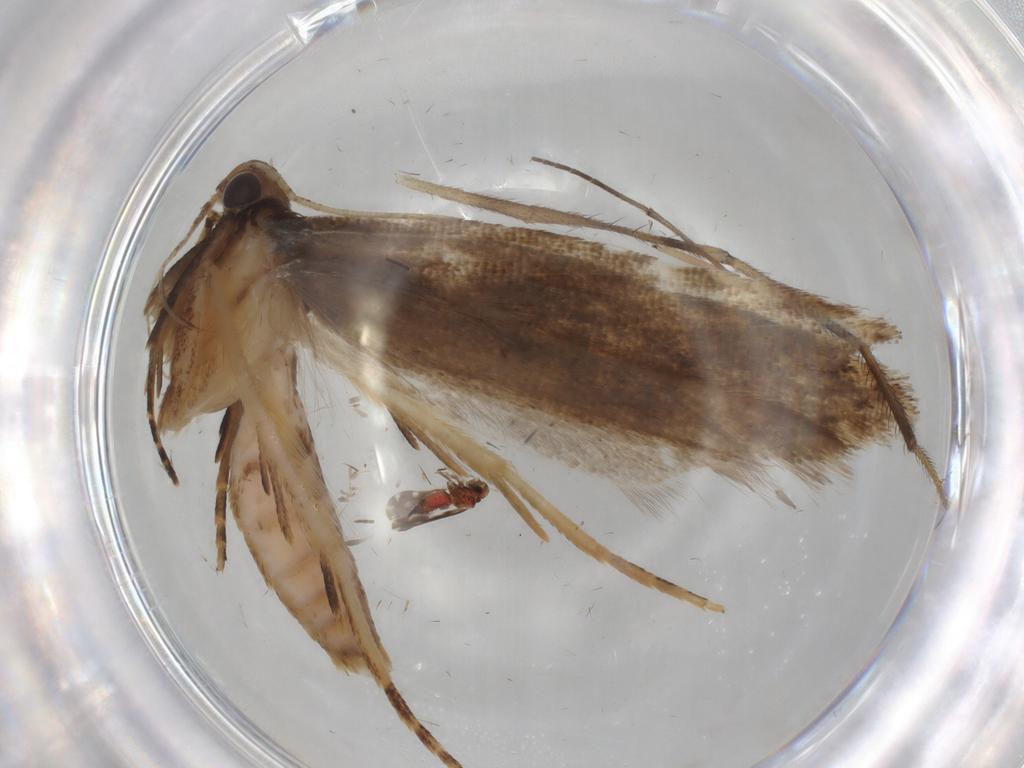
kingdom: Animalia
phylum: Arthropoda
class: Insecta
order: Lepidoptera
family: Gelechiidae
